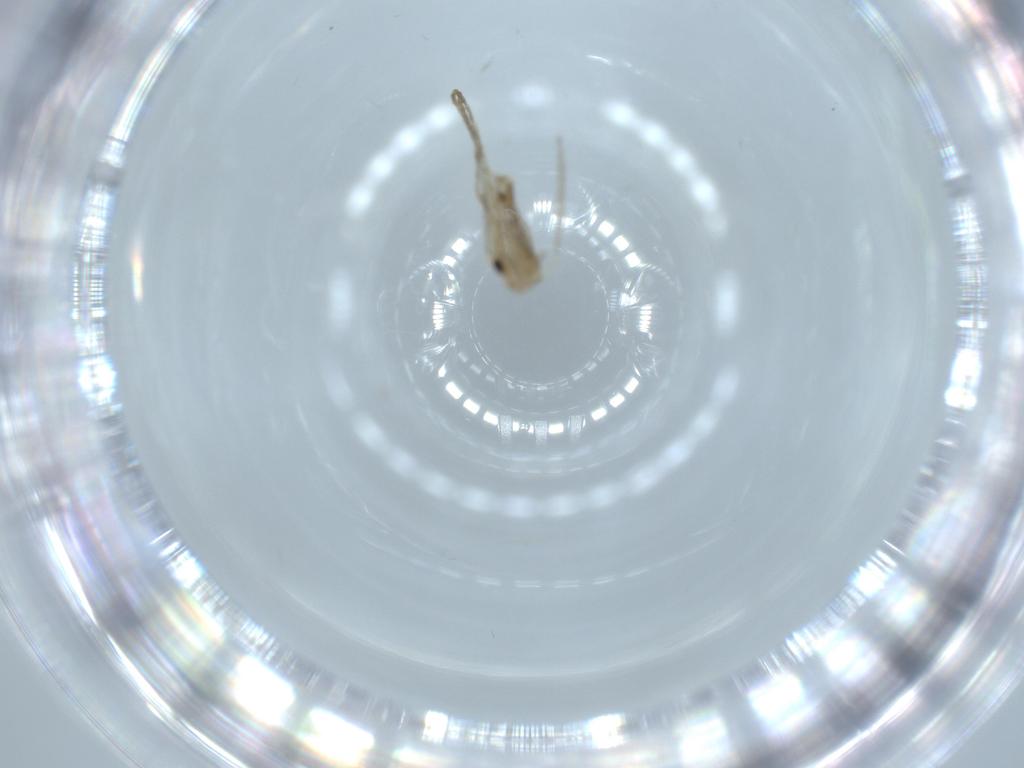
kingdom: Animalia
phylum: Arthropoda
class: Insecta
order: Diptera
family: Psychodidae
